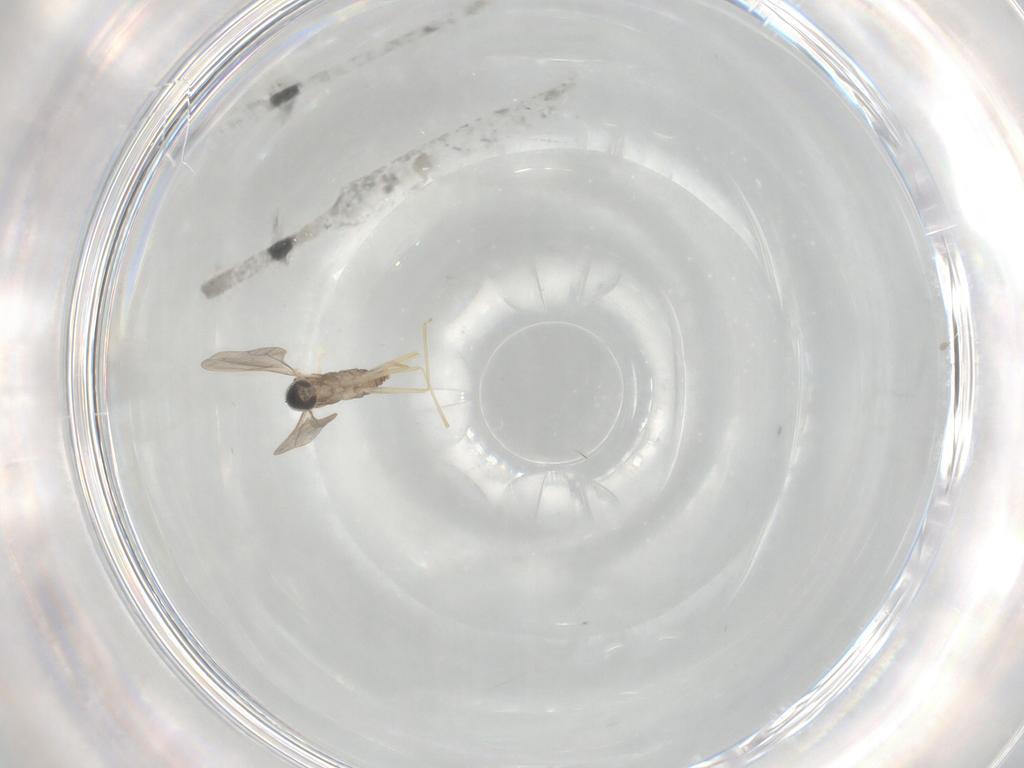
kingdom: Animalia
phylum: Arthropoda
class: Insecta
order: Diptera
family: Cecidomyiidae
